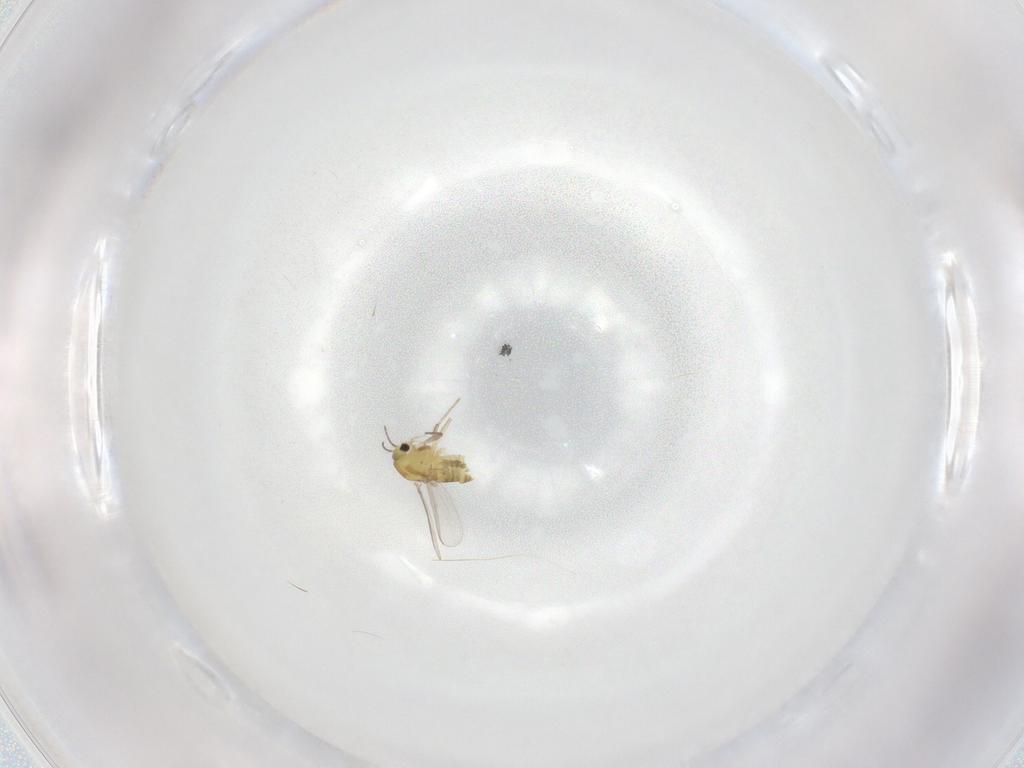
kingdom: Animalia
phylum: Arthropoda
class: Insecta
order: Diptera
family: Chironomidae
